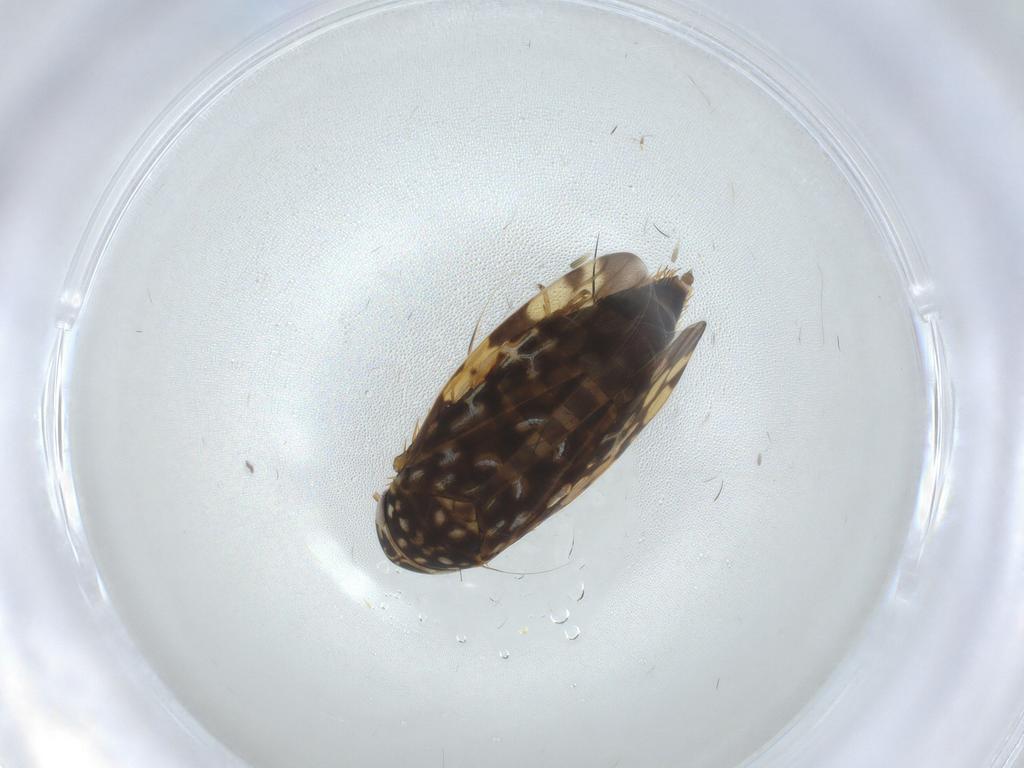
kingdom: Animalia
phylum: Arthropoda
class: Insecta
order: Hemiptera
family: Cicadellidae
